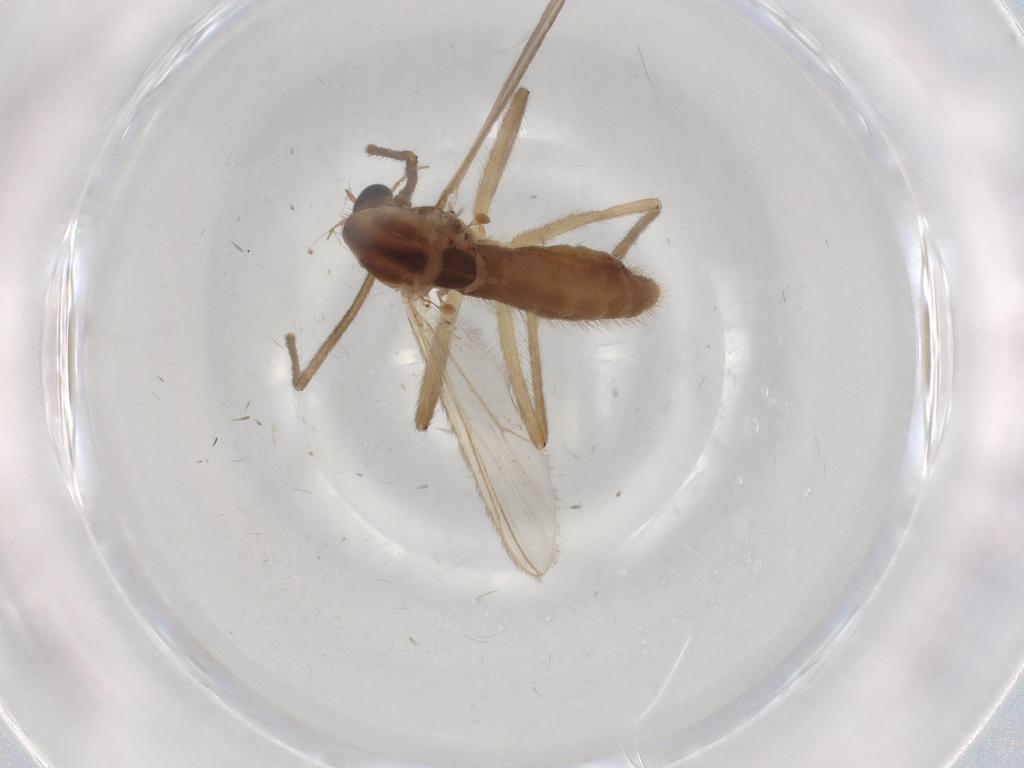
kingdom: Animalia
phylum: Arthropoda
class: Insecta
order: Diptera
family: Chironomidae
